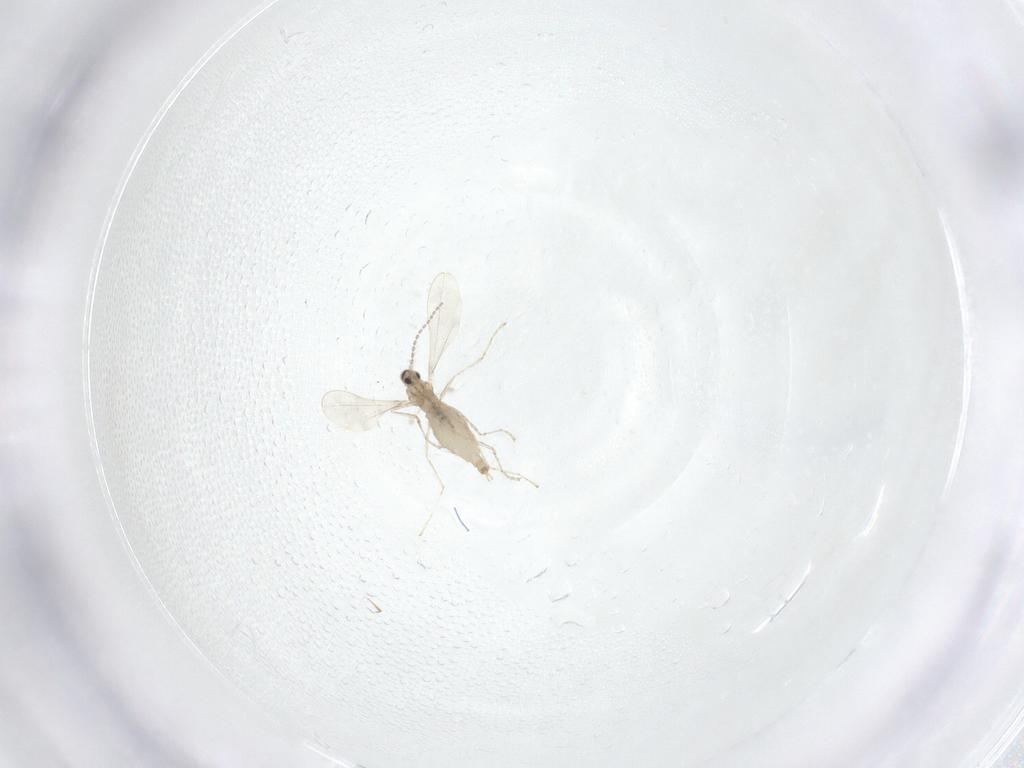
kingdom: Animalia
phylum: Arthropoda
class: Insecta
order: Diptera
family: Cecidomyiidae
